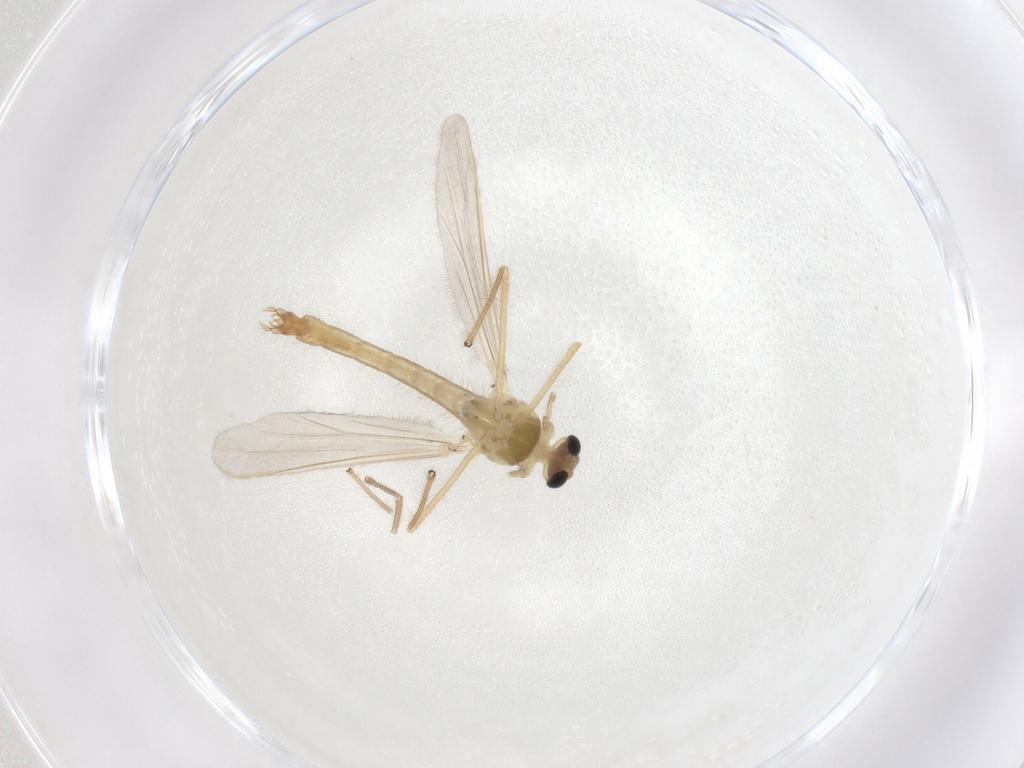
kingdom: Animalia
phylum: Arthropoda
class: Insecta
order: Diptera
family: Chironomidae
